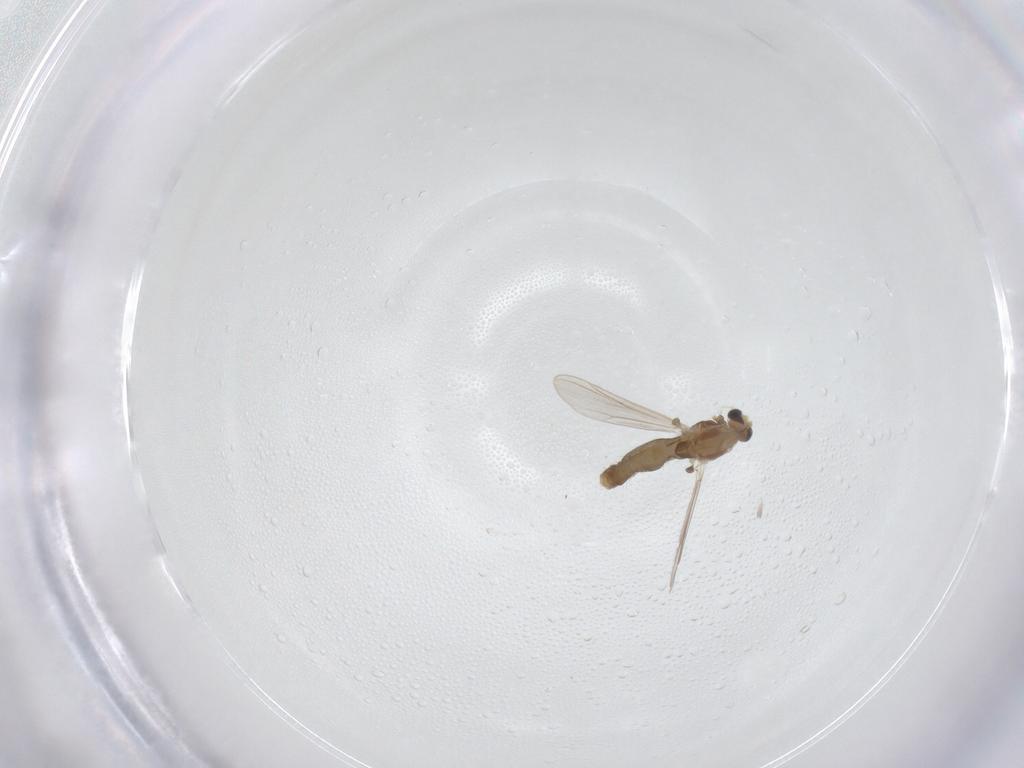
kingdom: Animalia
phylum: Arthropoda
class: Insecta
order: Diptera
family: Chironomidae
